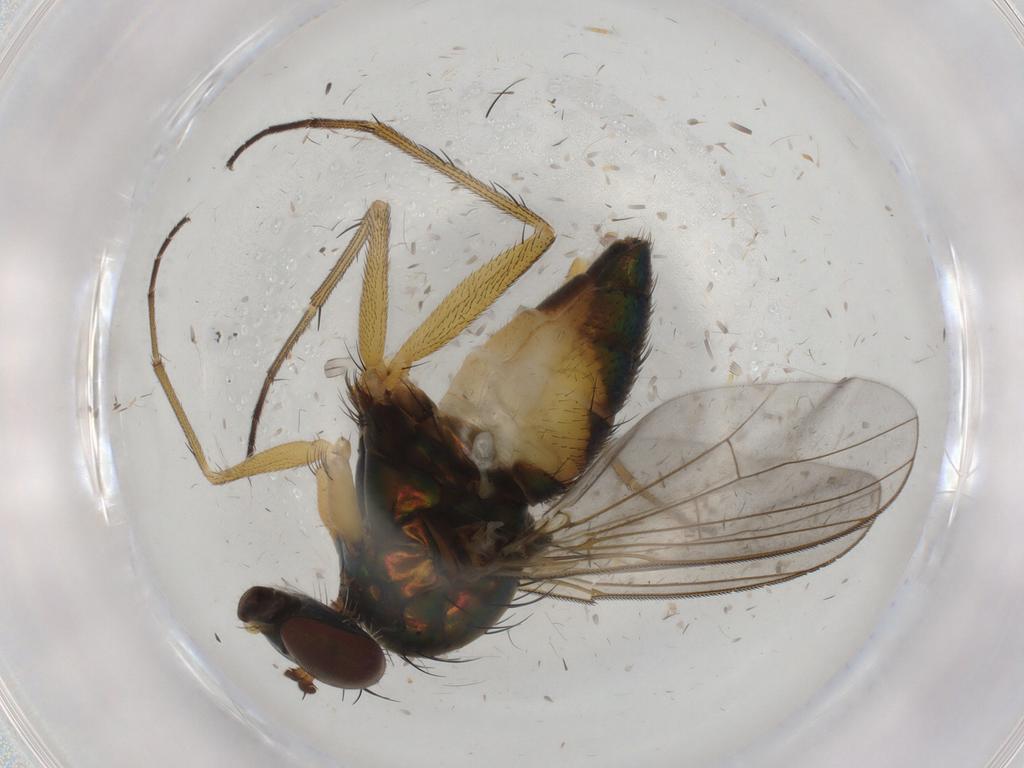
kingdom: Animalia
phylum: Arthropoda
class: Insecta
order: Diptera
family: Dolichopodidae
